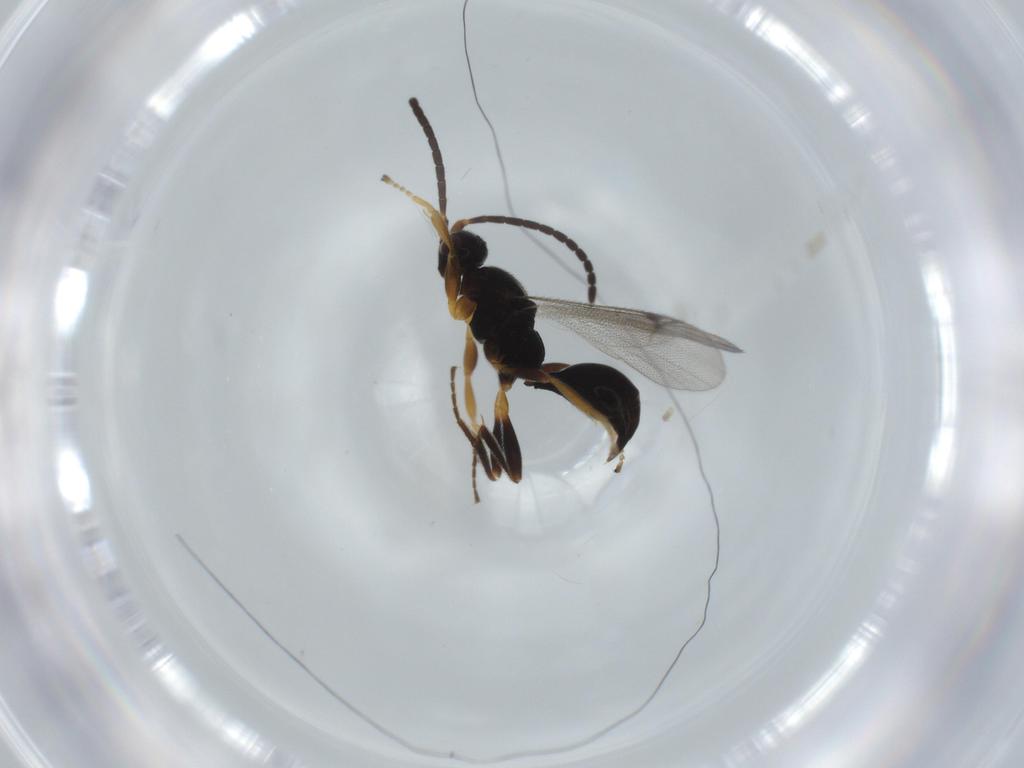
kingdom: Animalia
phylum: Arthropoda
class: Insecta
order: Hymenoptera
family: Proctotrupidae
